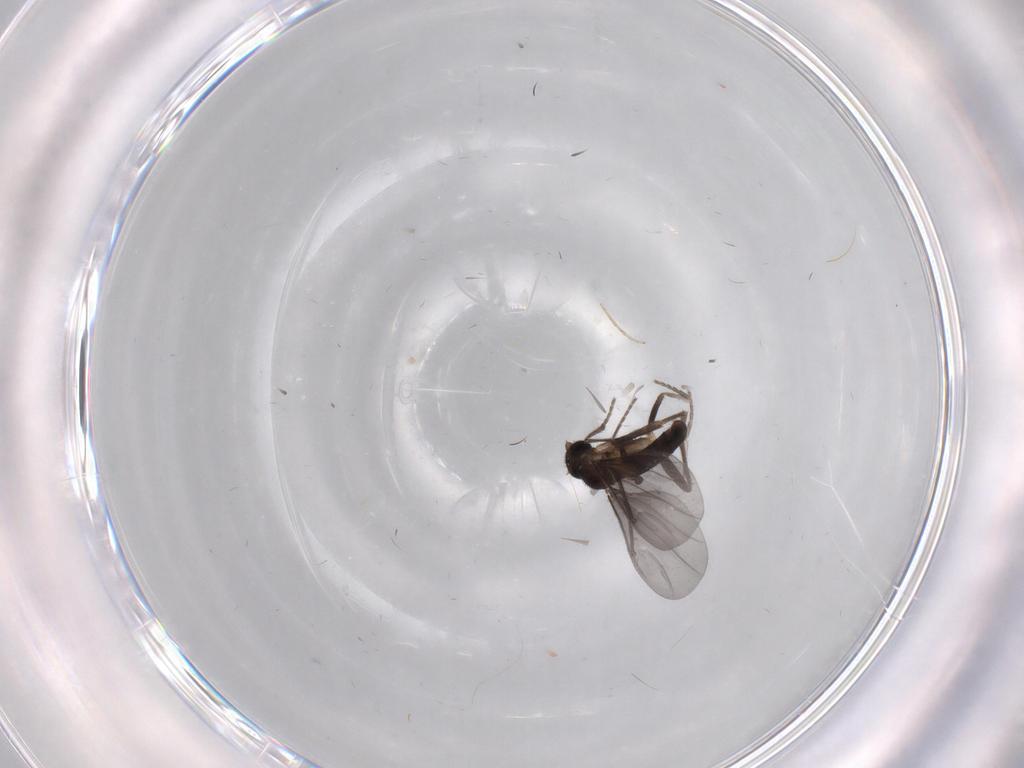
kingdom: Animalia
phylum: Arthropoda
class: Insecta
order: Diptera
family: Phoridae
